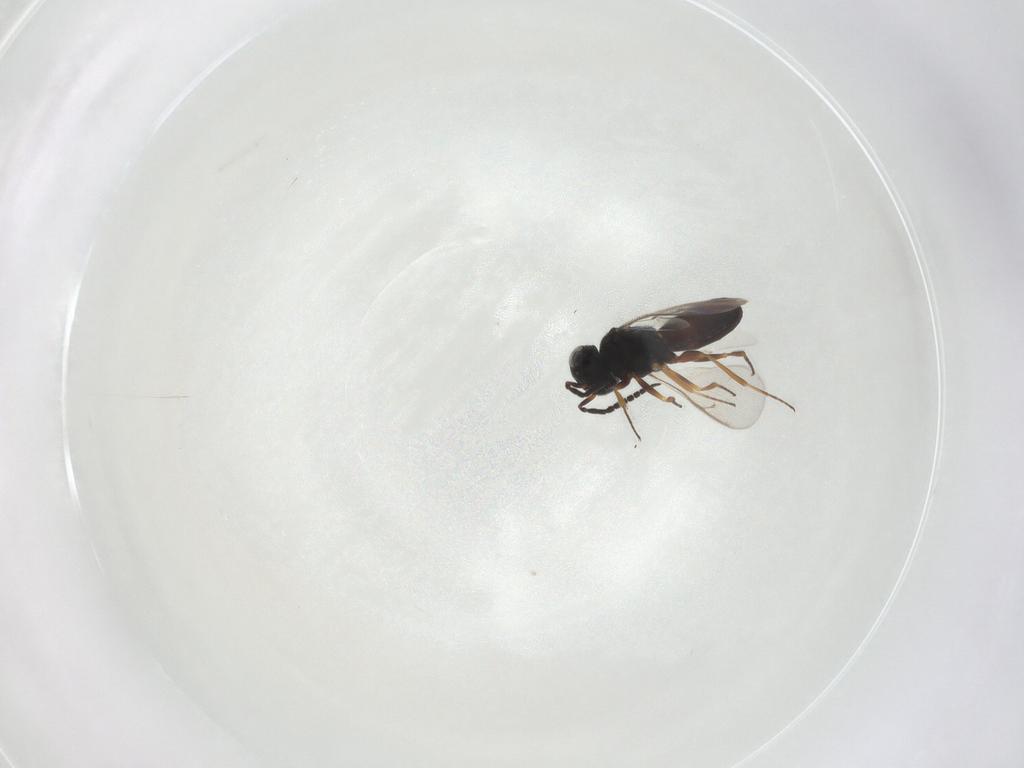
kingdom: Animalia
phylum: Arthropoda
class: Insecta
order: Hymenoptera
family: Scelionidae
